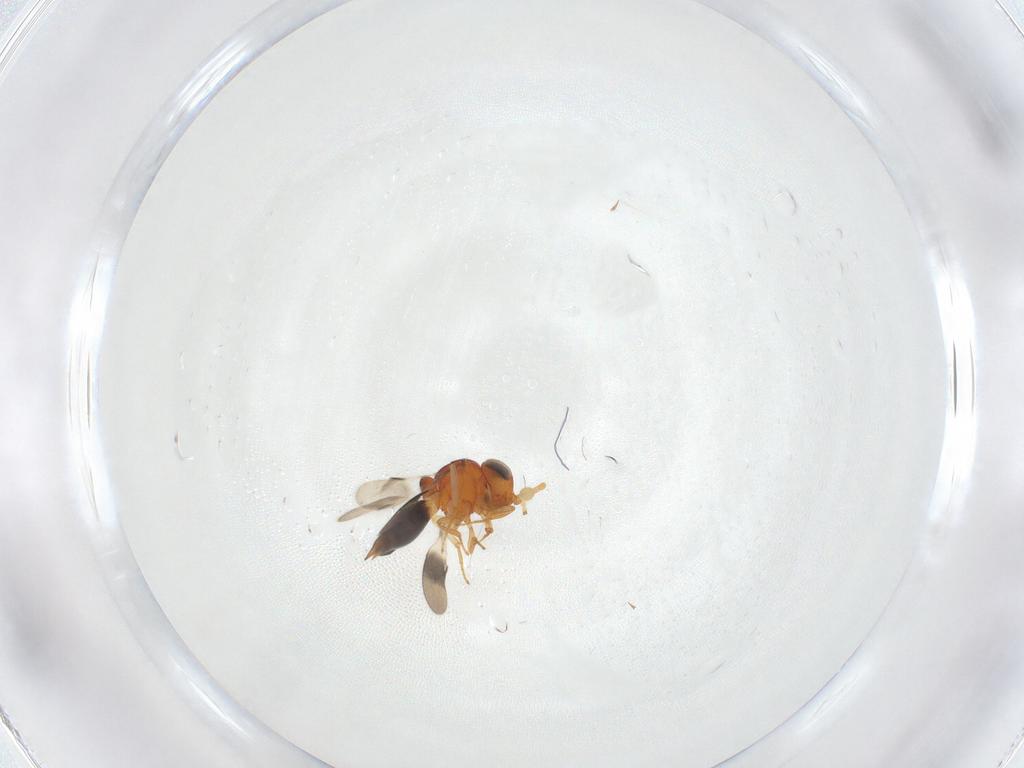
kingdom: Animalia
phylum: Arthropoda
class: Insecta
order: Hymenoptera
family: Scelionidae
